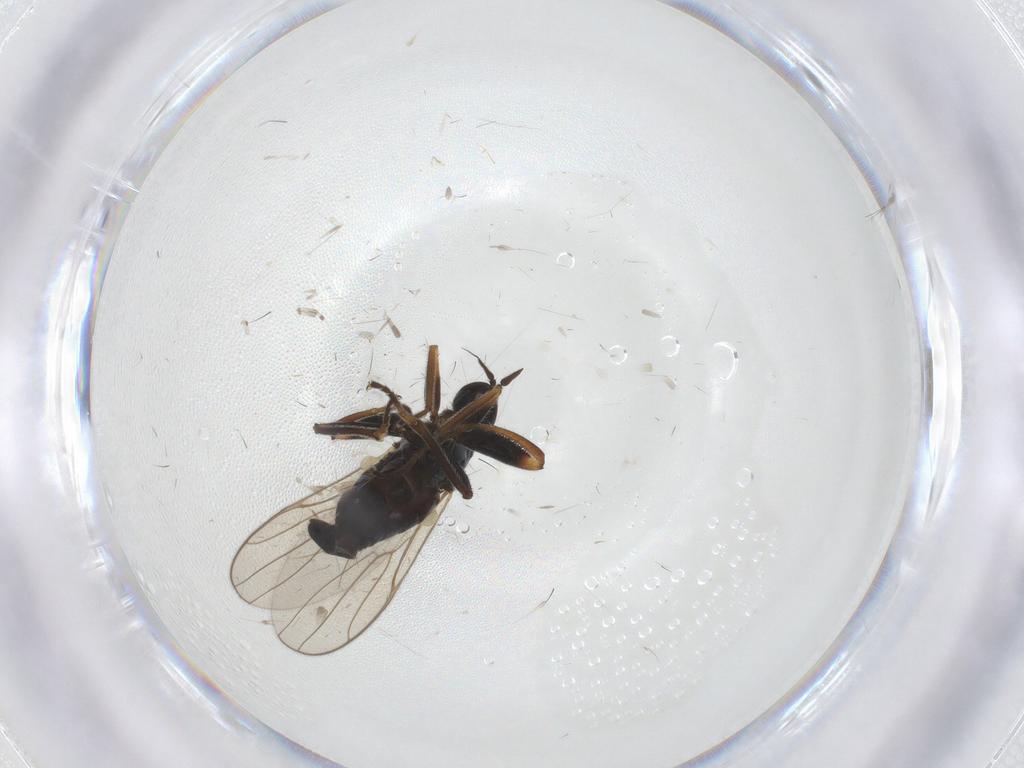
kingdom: Animalia
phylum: Arthropoda
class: Insecta
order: Diptera
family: Chironomidae
